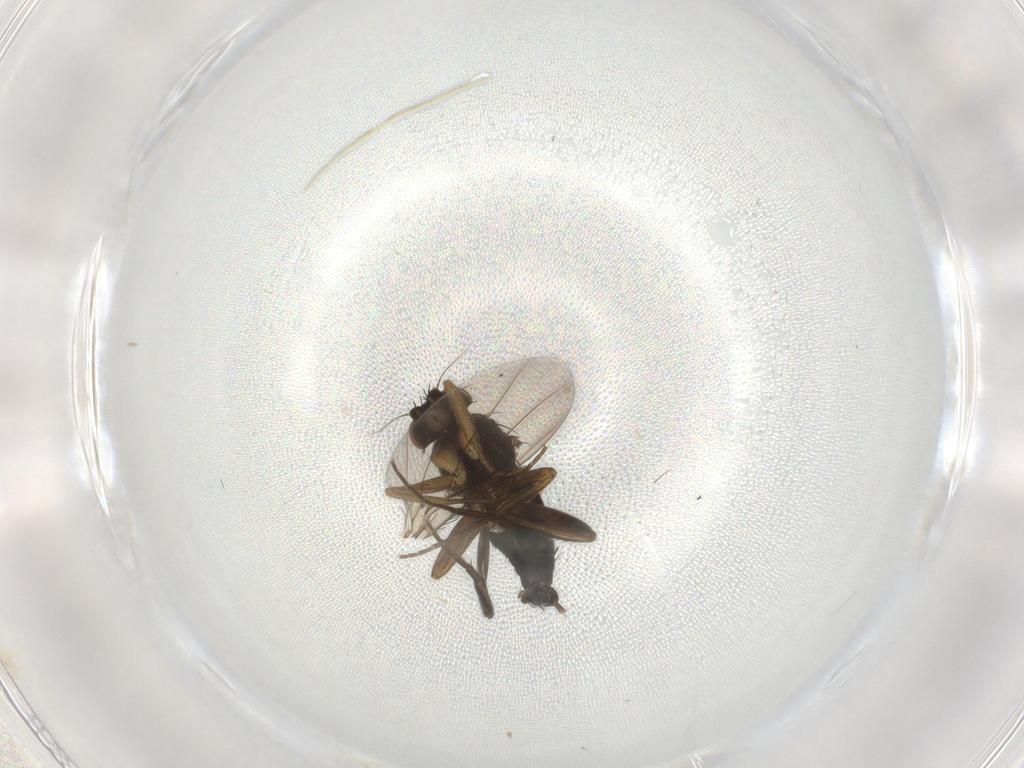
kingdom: Animalia
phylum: Arthropoda
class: Insecta
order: Diptera
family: Phoridae
